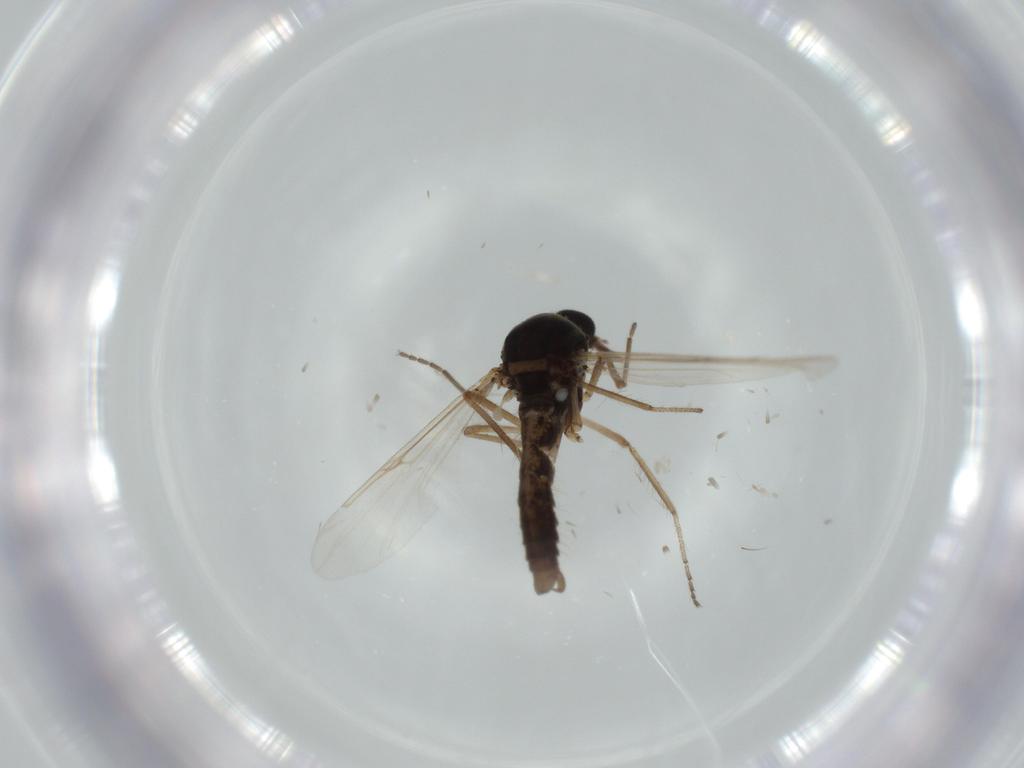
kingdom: Animalia
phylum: Arthropoda
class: Insecta
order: Diptera
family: Ceratopogonidae
